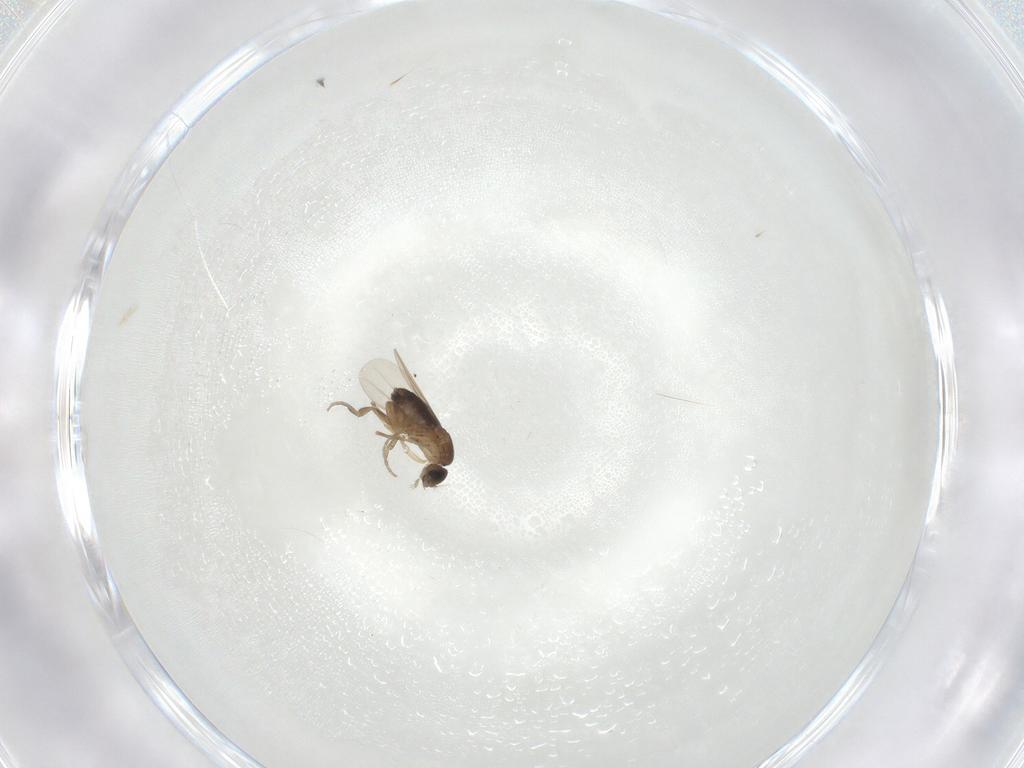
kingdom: Animalia
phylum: Arthropoda
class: Insecta
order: Diptera
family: Phoridae
